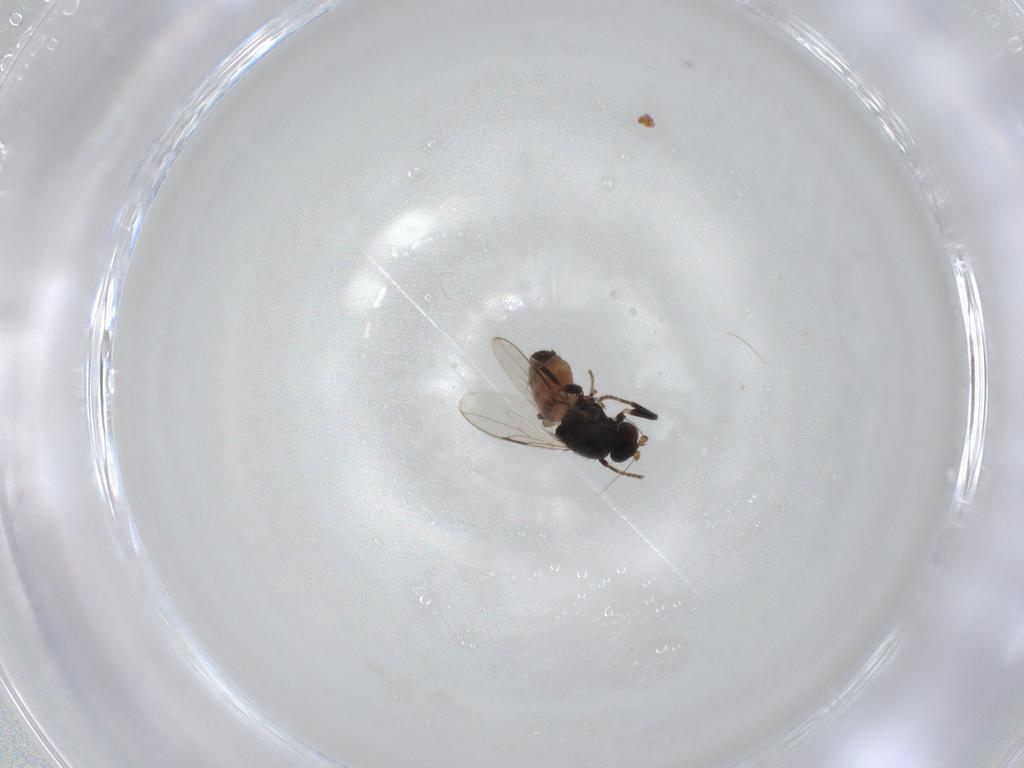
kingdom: Animalia
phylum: Arthropoda
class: Insecta
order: Diptera
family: Sphaeroceridae
